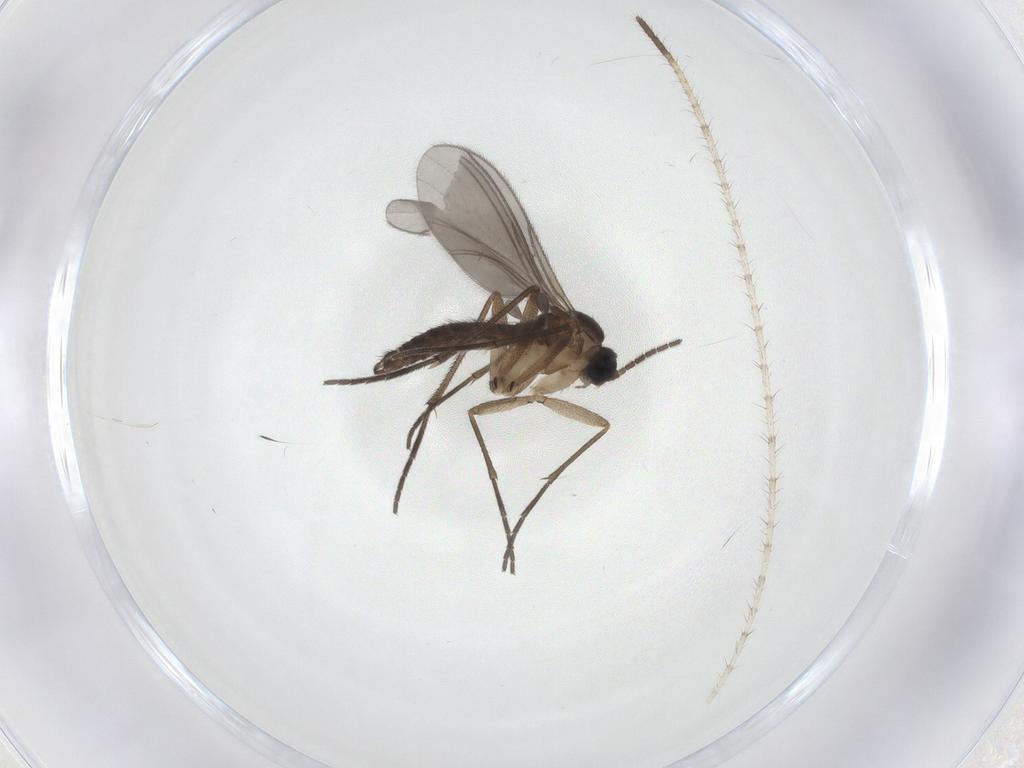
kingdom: Animalia
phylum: Arthropoda
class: Insecta
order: Diptera
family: Sciaridae
